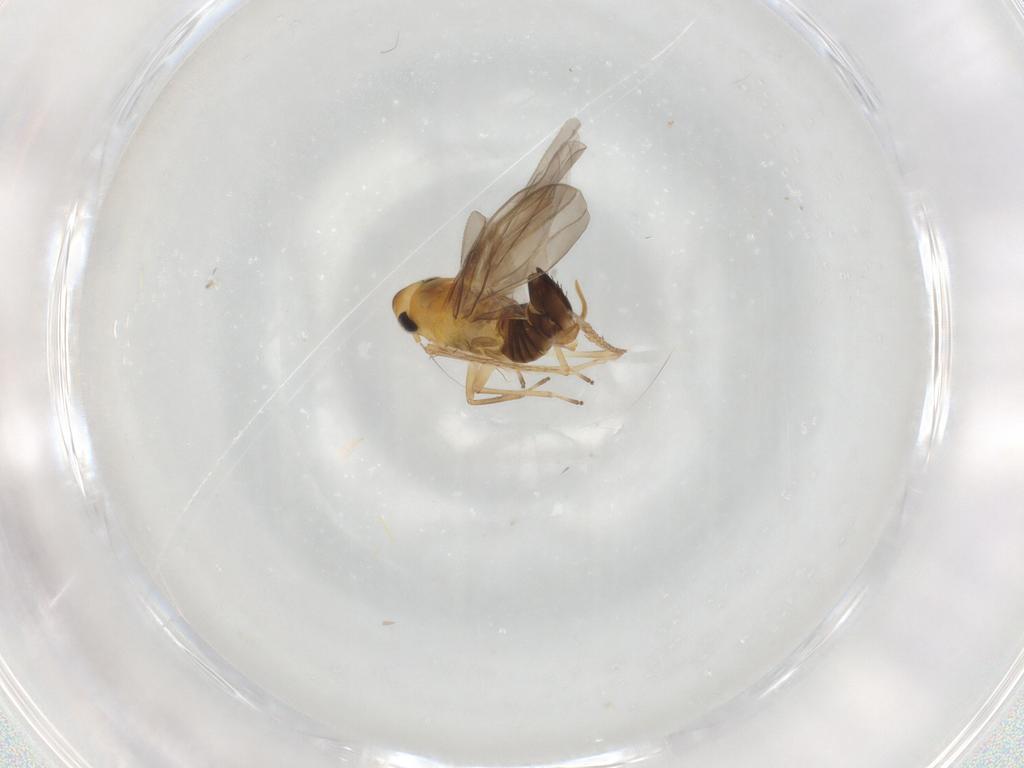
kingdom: Animalia
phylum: Arthropoda
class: Insecta
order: Hemiptera
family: Cicadellidae
